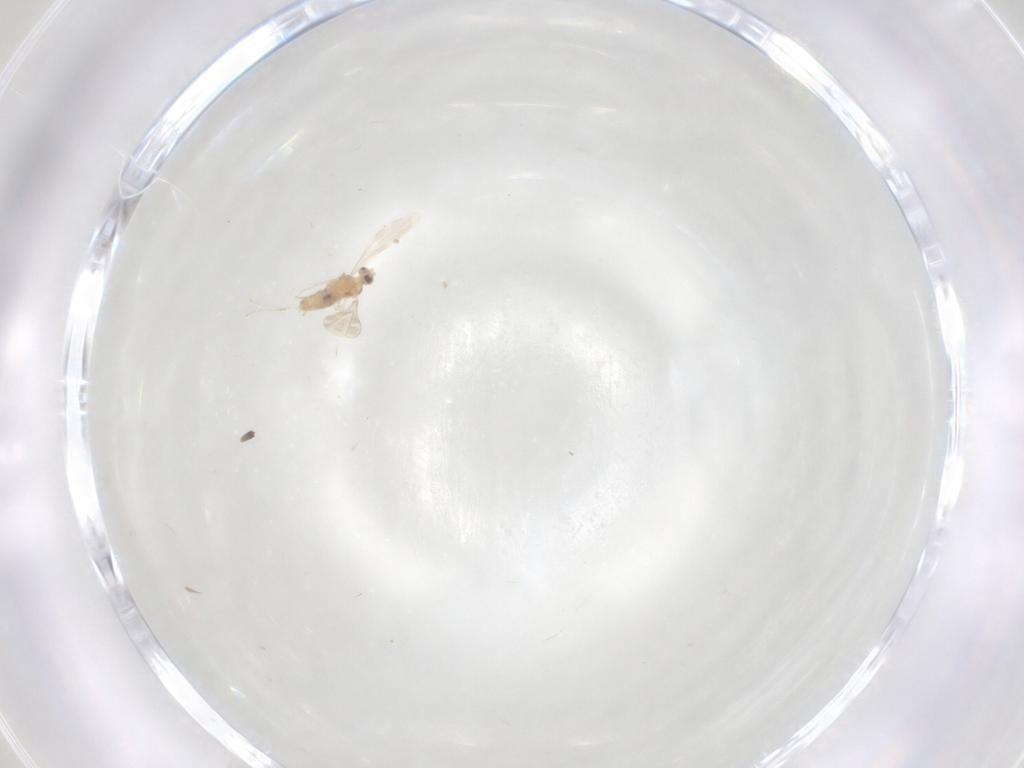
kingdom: Animalia
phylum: Arthropoda
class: Insecta
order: Diptera
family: Cecidomyiidae
